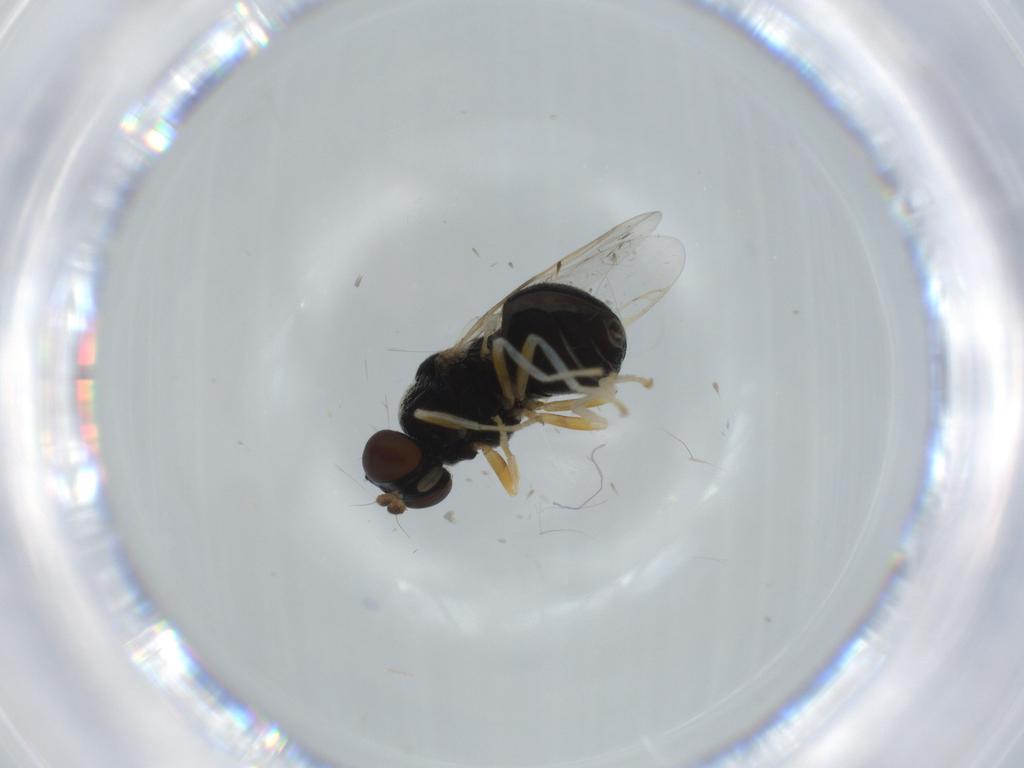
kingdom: Animalia
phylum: Arthropoda
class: Insecta
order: Diptera
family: Stratiomyidae
